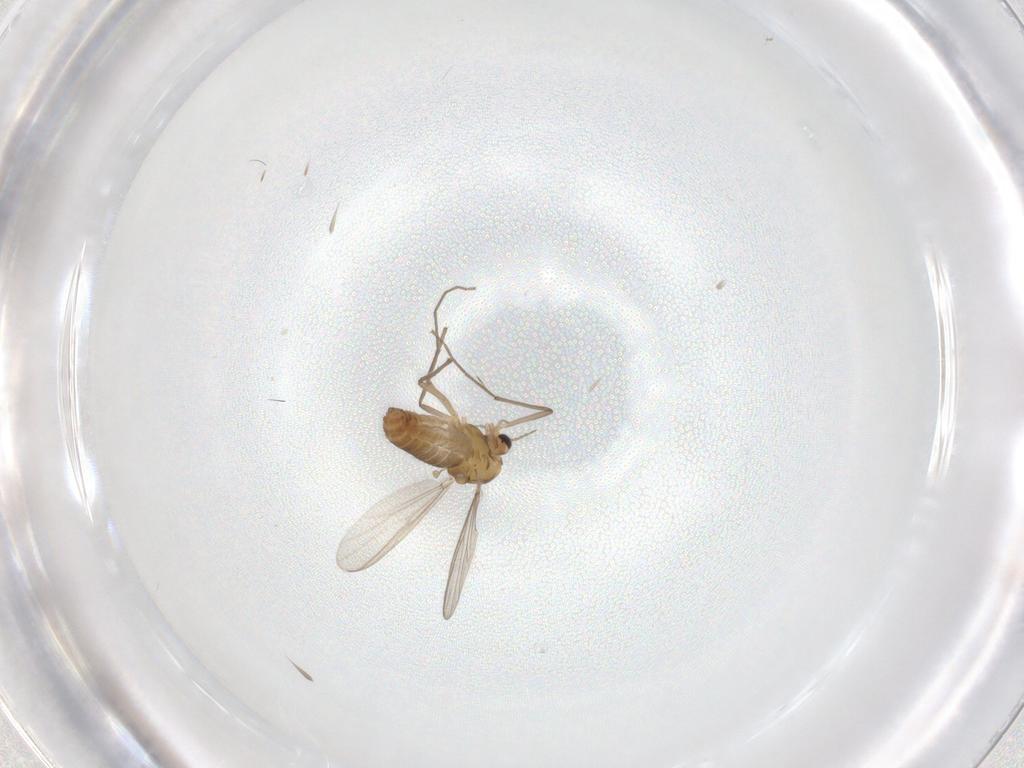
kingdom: Animalia
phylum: Arthropoda
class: Insecta
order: Diptera
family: Chironomidae
